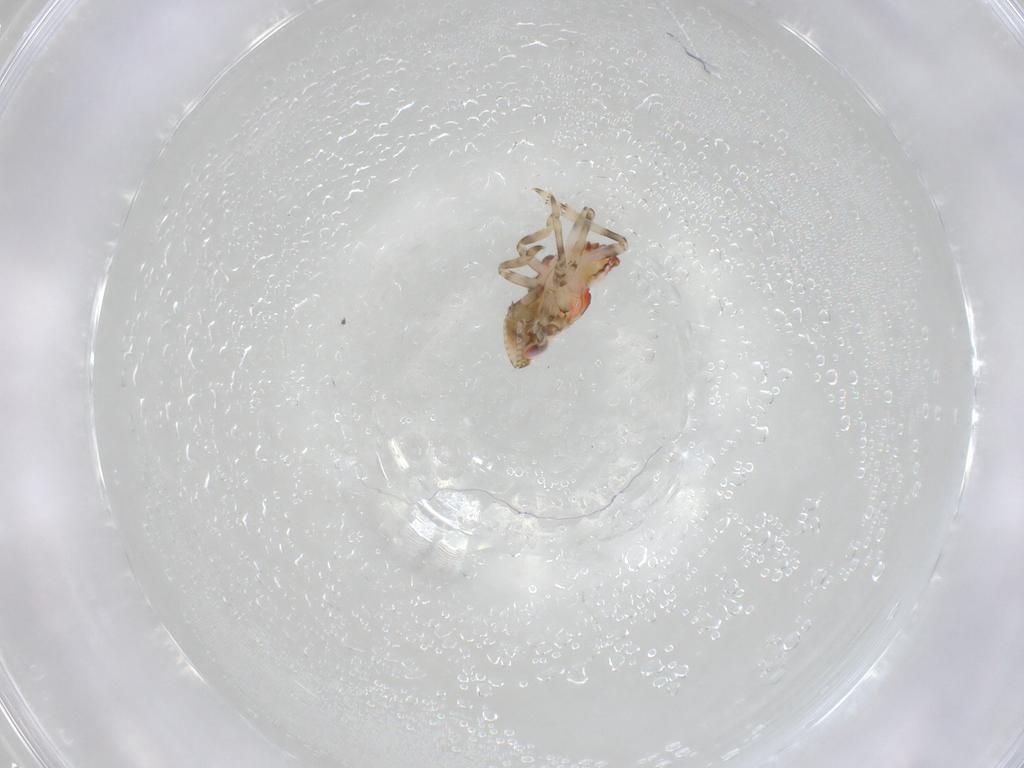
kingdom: Animalia
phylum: Arthropoda
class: Insecta
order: Hemiptera
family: Tropiduchidae
